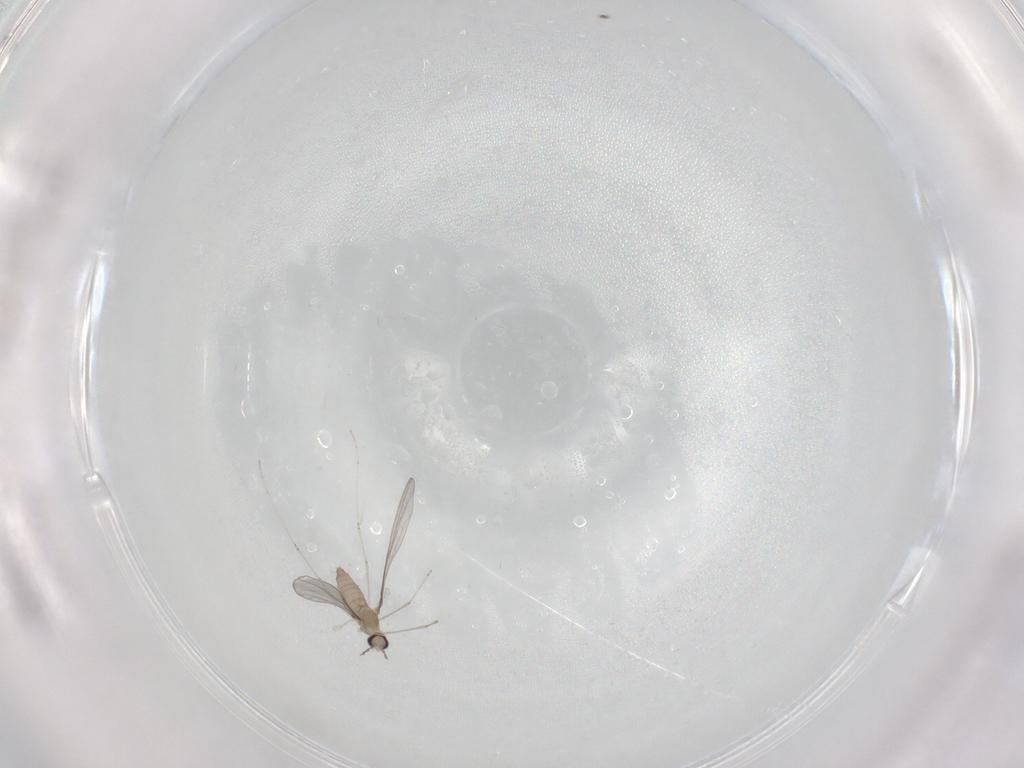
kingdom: Animalia
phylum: Arthropoda
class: Insecta
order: Diptera
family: Cecidomyiidae
